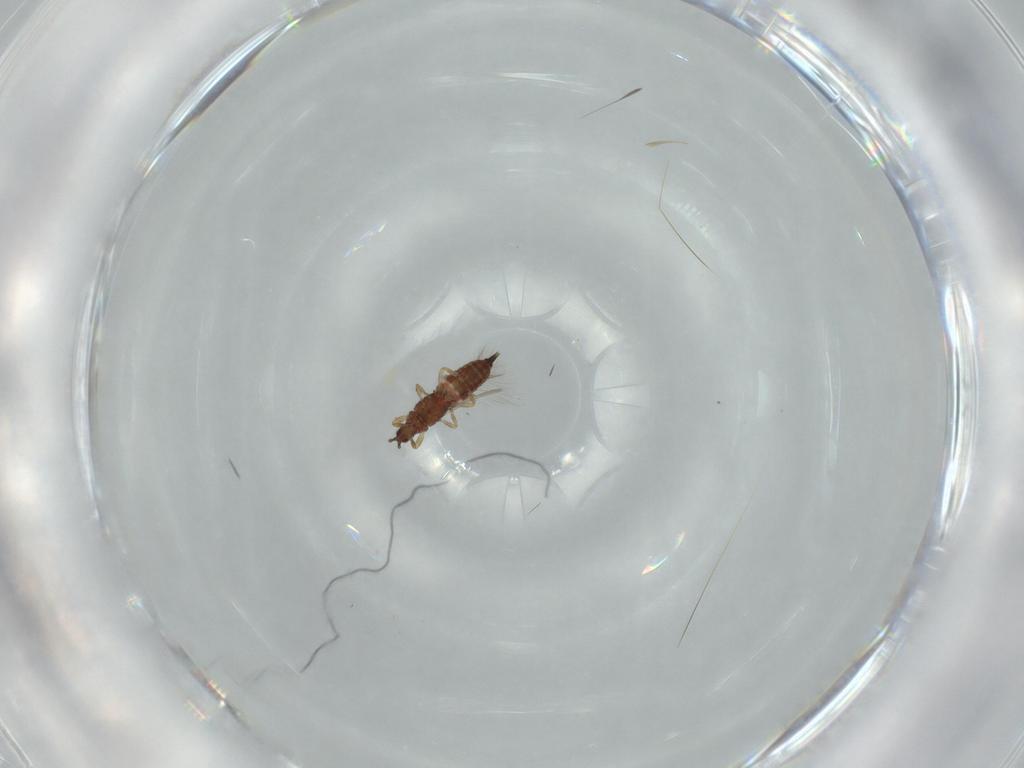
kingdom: Animalia
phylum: Arthropoda
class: Insecta
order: Thysanoptera
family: Phlaeothripidae
